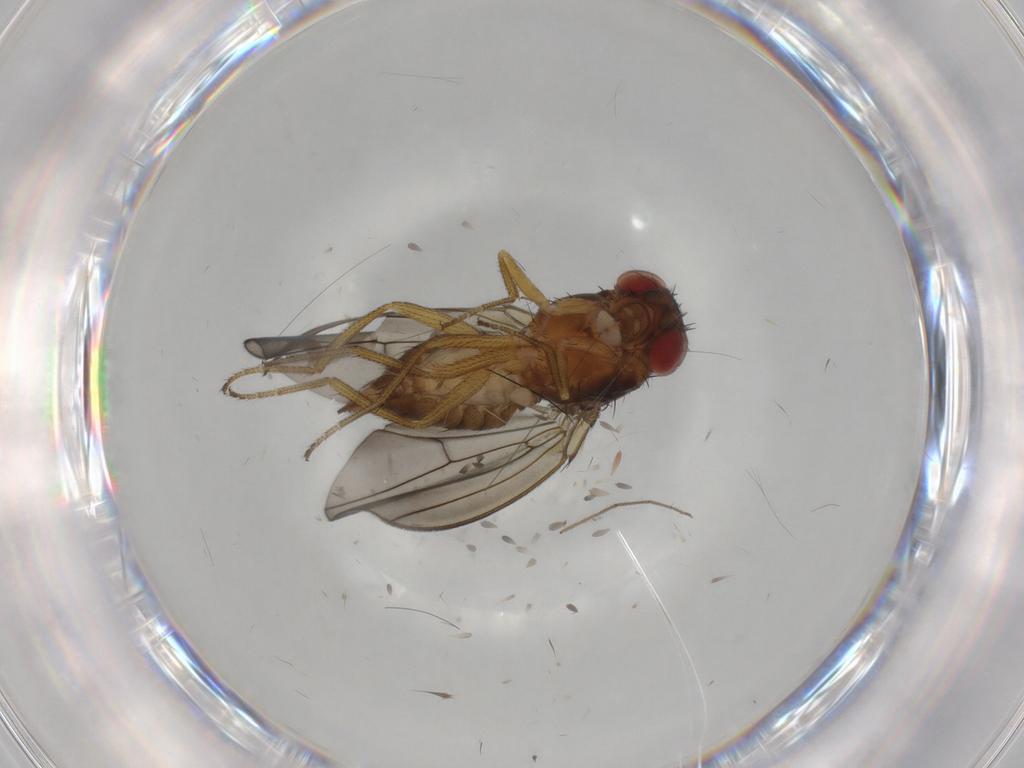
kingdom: Animalia
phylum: Arthropoda
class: Insecta
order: Diptera
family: Drosophilidae
